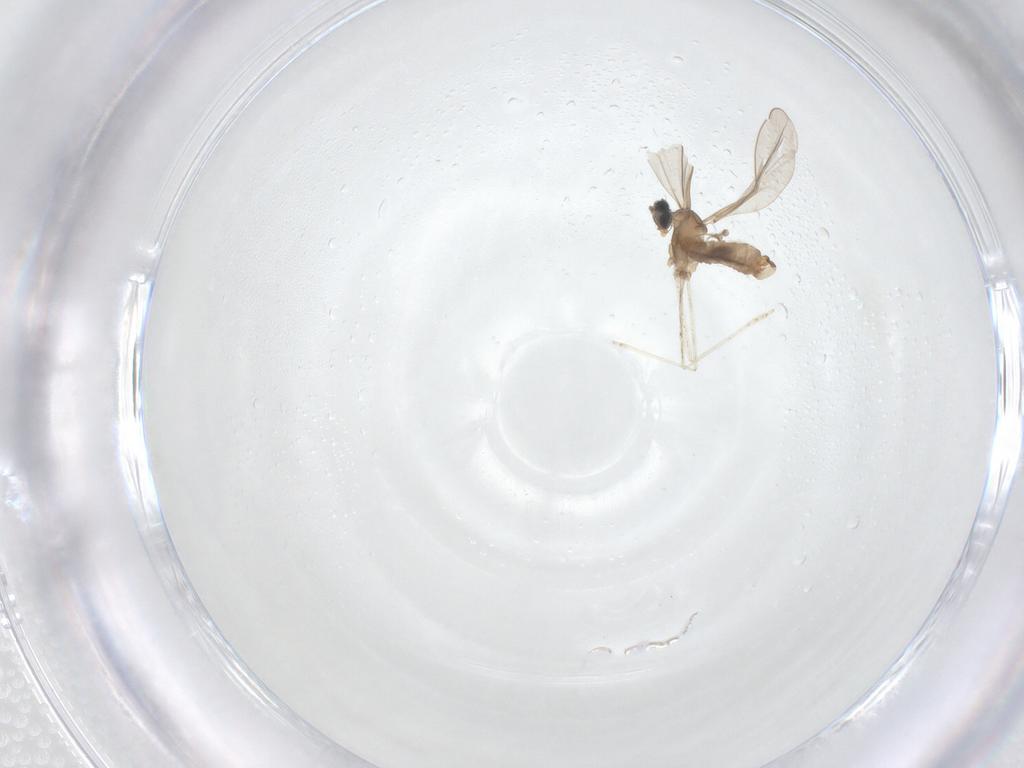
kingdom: Animalia
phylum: Arthropoda
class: Insecta
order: Diptera
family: Cecidomyiidae
